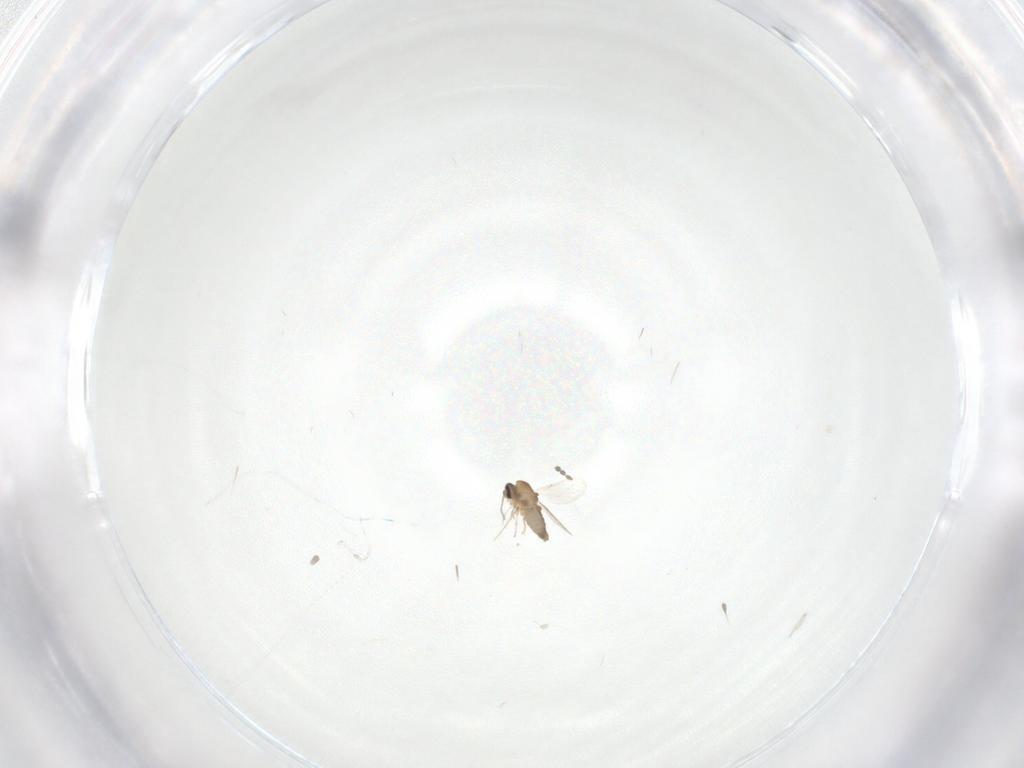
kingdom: Animalia
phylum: Arthropoda
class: Insecta
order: Diptera
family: Ceratopogonidae
